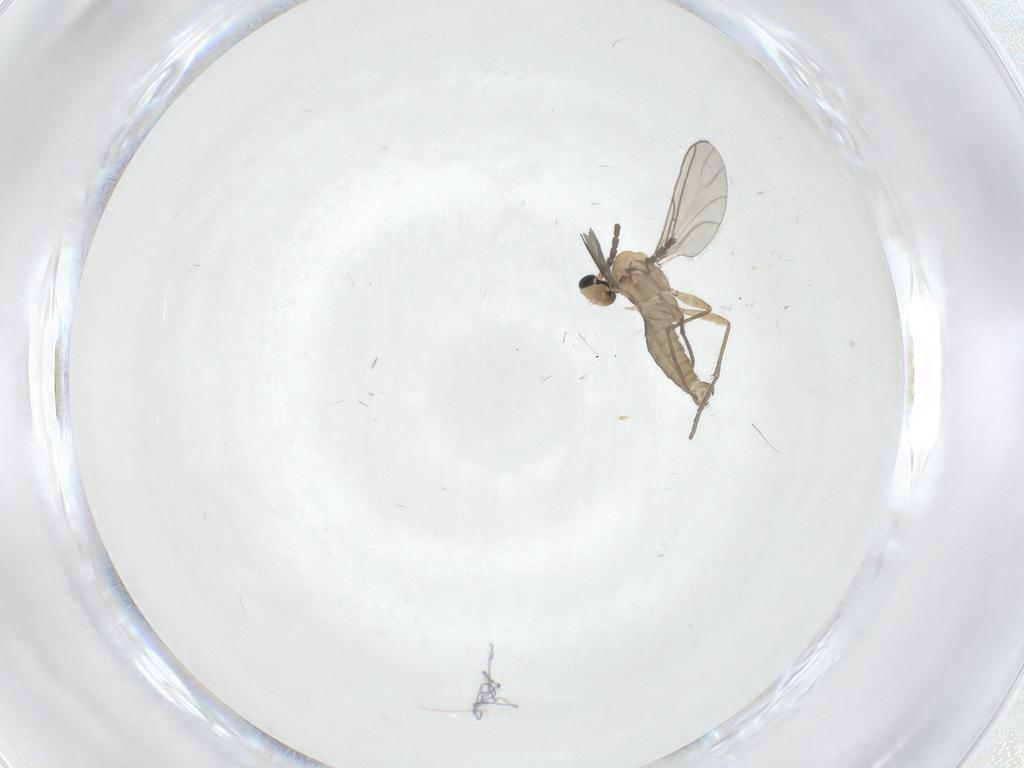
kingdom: Animalia
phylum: Arthropoda
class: Insecta
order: Diptera
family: Sciaridae
